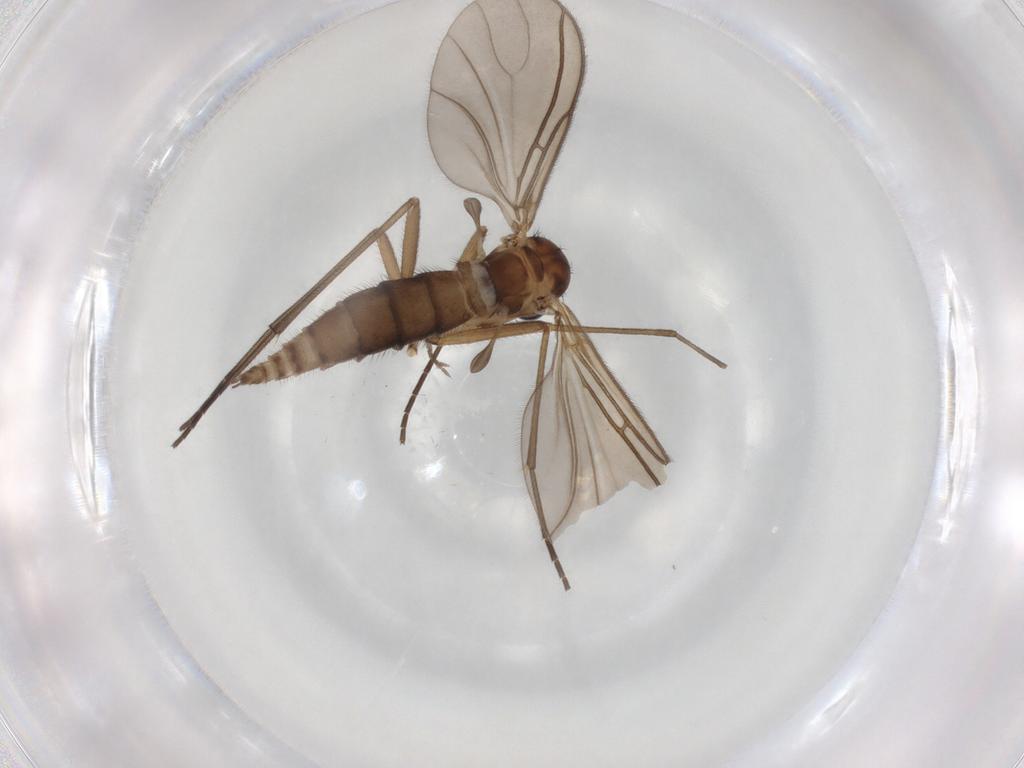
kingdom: Animalia
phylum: Arthropoda
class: Insecta
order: Diptera
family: Sciaridae
